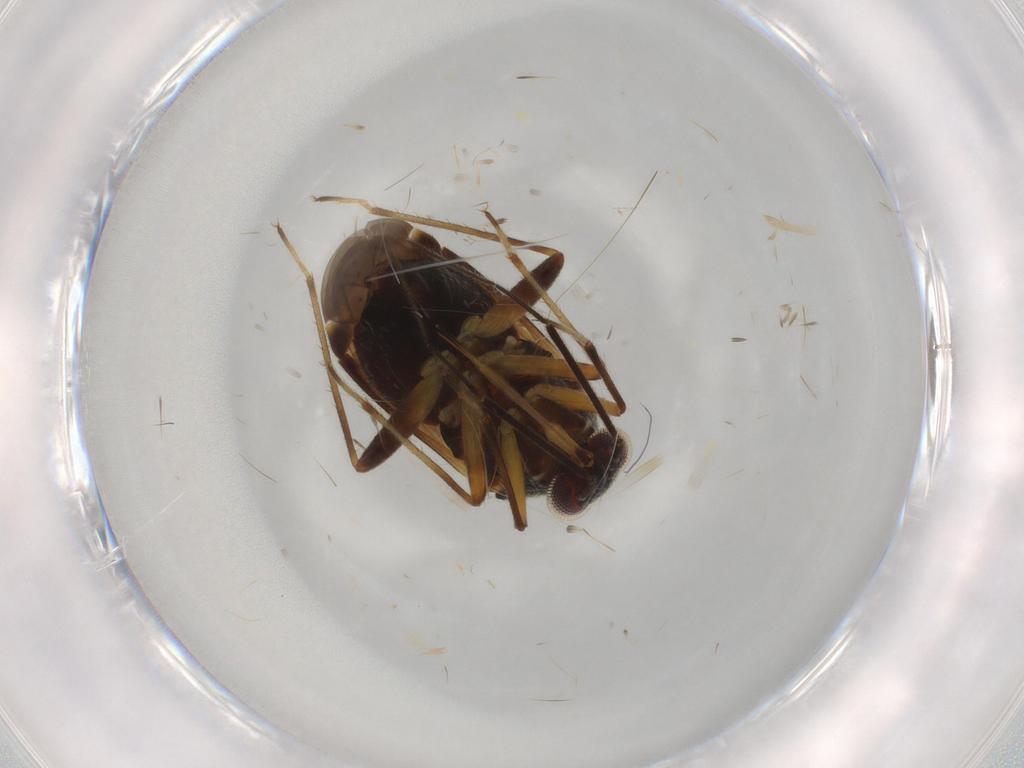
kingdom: Animalia
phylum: Arthropoda
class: Insecta
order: Hemiptera
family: Miridae
